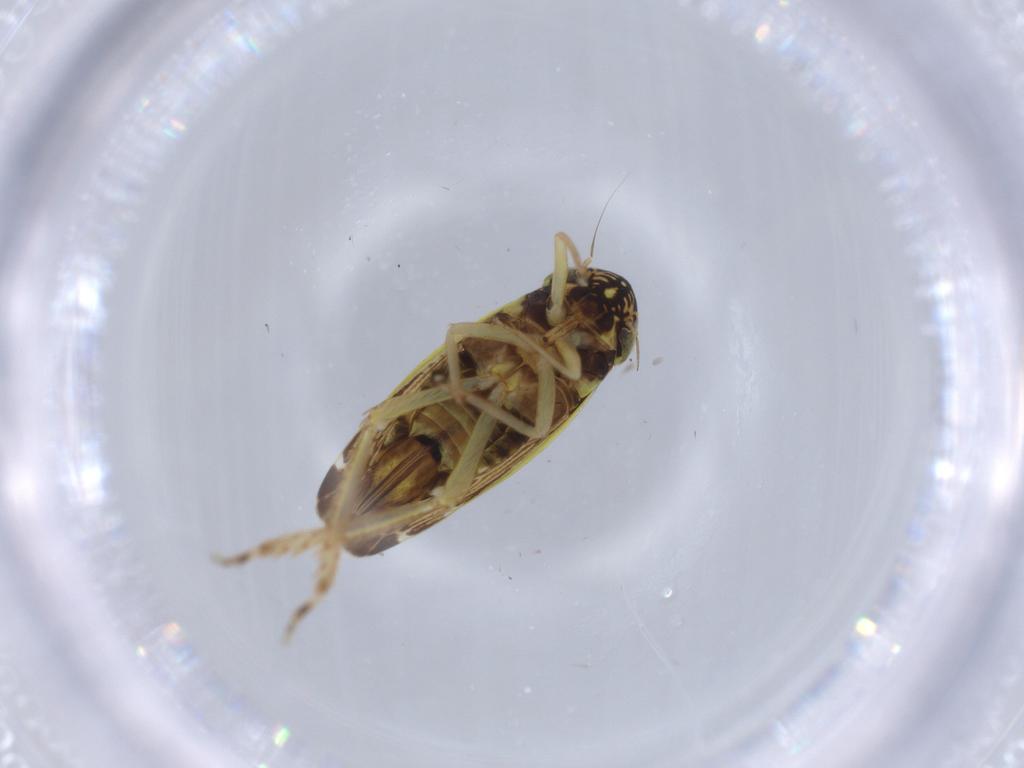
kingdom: Animalia
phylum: Arthropoda
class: Insecta
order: Hemiptera
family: Cicadellidae
